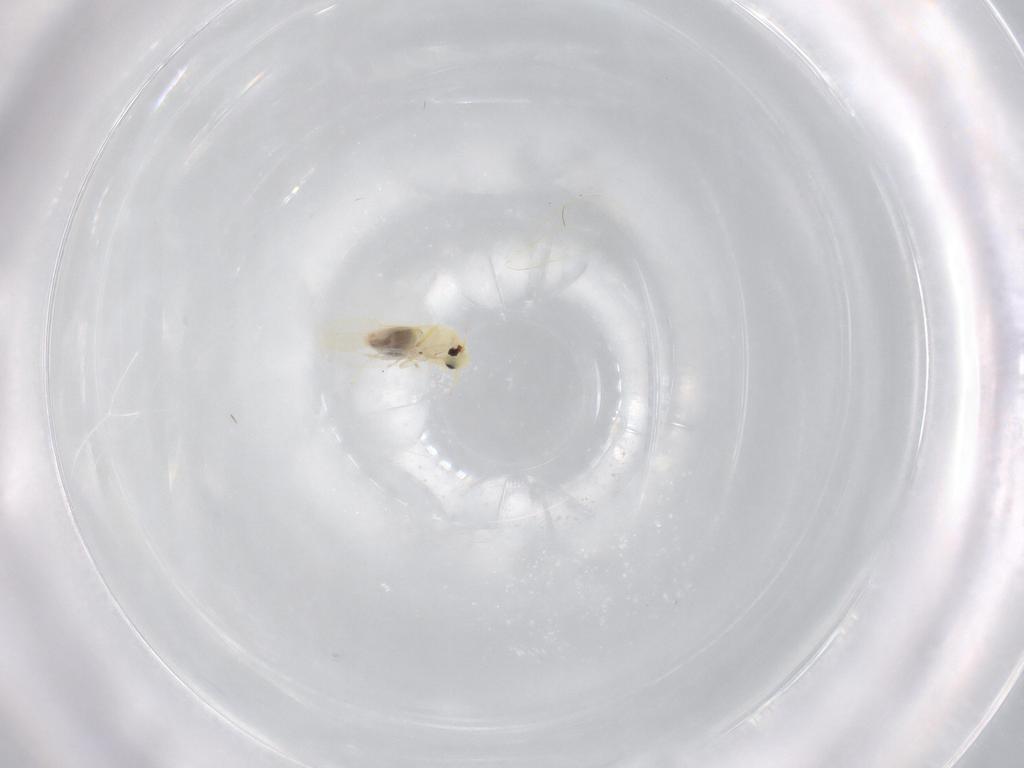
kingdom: Animalia
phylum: Arthropoda
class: Insecta
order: Hemiptera
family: Aleyrodidae
